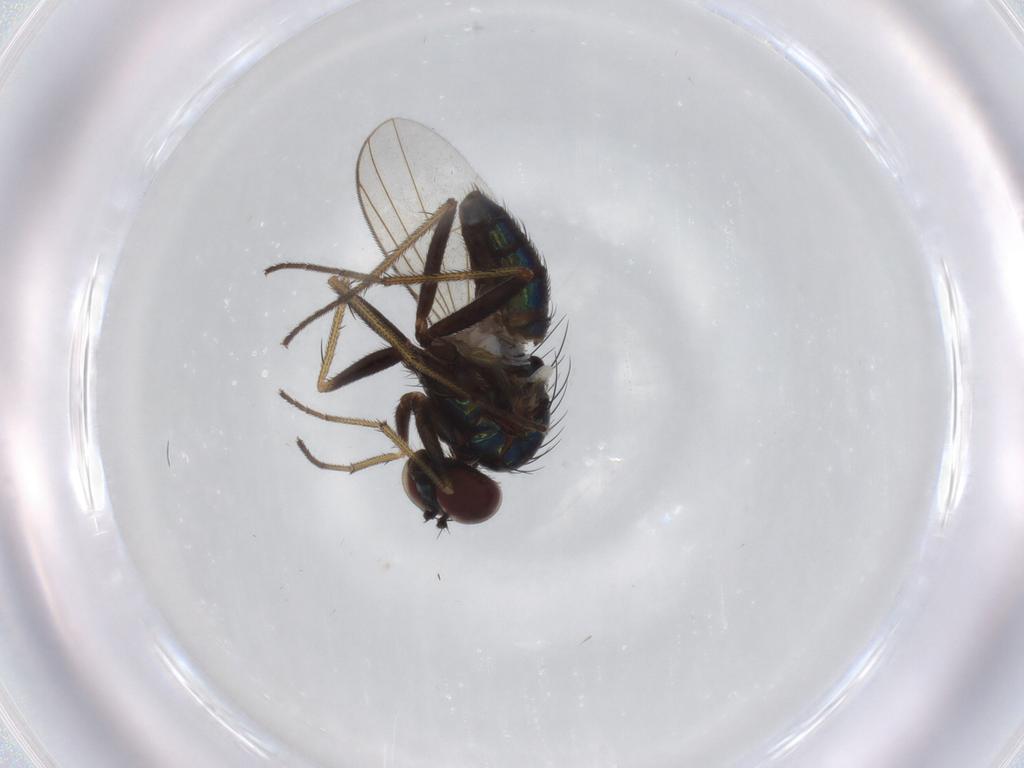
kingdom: Animalia
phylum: Arthropoda
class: Insecta
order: Diptera
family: Dolichopodidae
